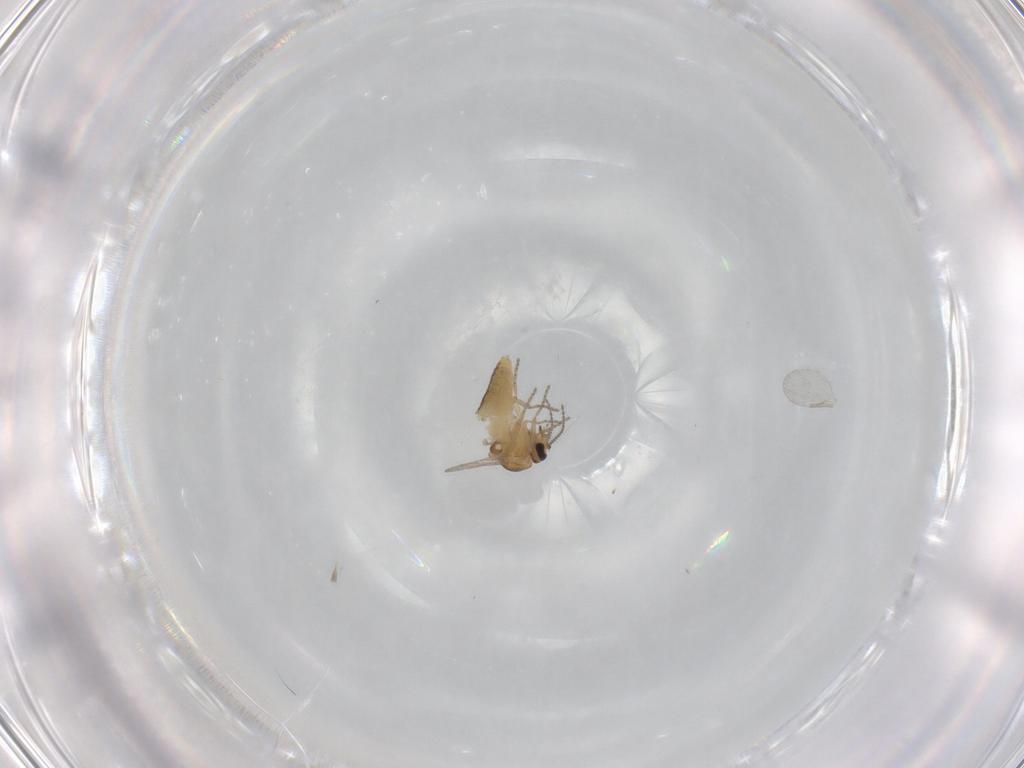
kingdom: Animalia
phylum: Arthropoda
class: Insecta
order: Diptera
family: Ceratopogonidae
